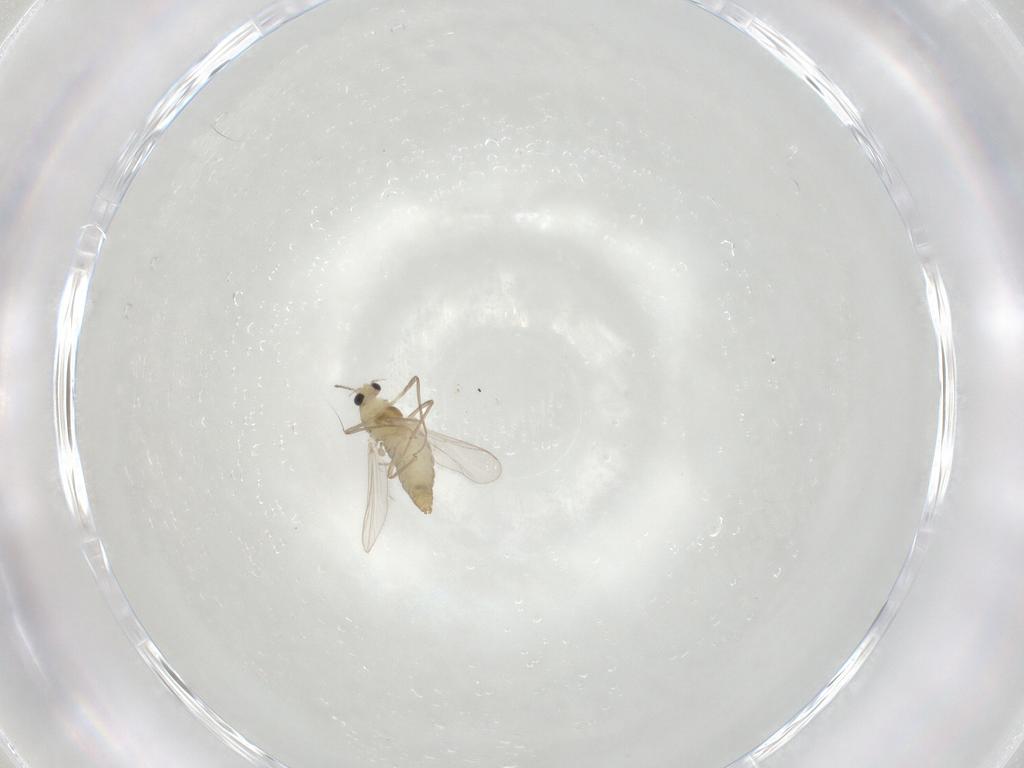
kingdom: Animalia
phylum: Arthropoda
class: Insecta
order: Diptera
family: Chironomidae
